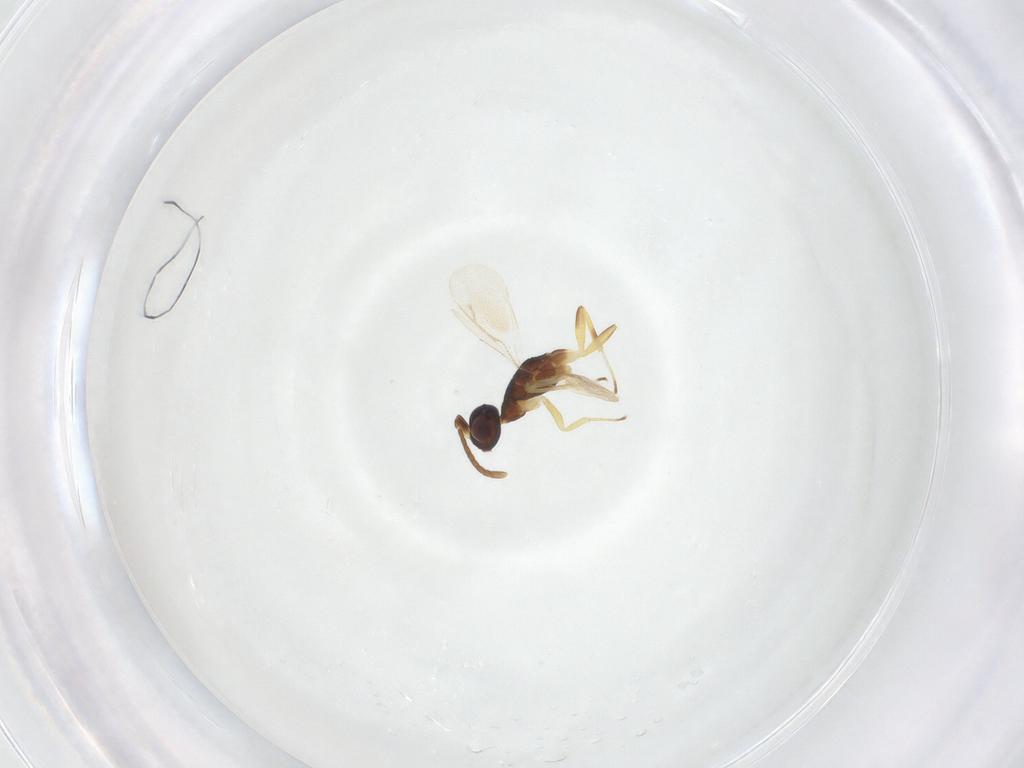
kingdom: Animalia
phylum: Arthropoda
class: Insecta
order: Hymenoptera
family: Eupelmidae
